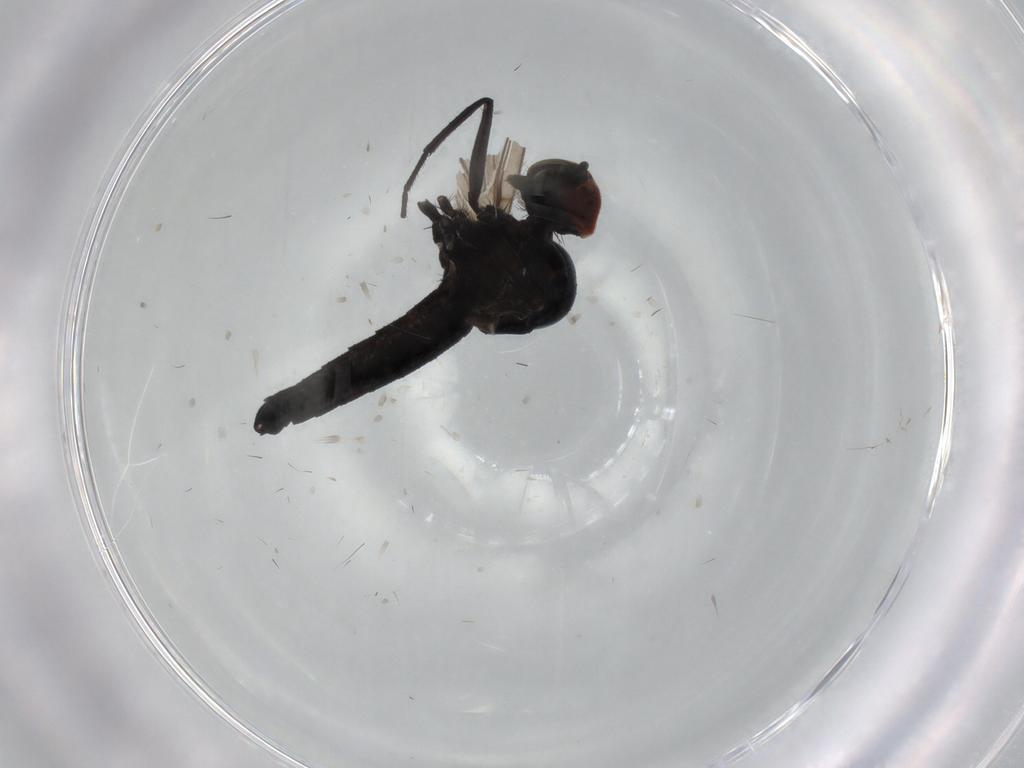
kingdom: Animalia
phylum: Arthropoda
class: Insecta
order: Diptera
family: Hybotidae
